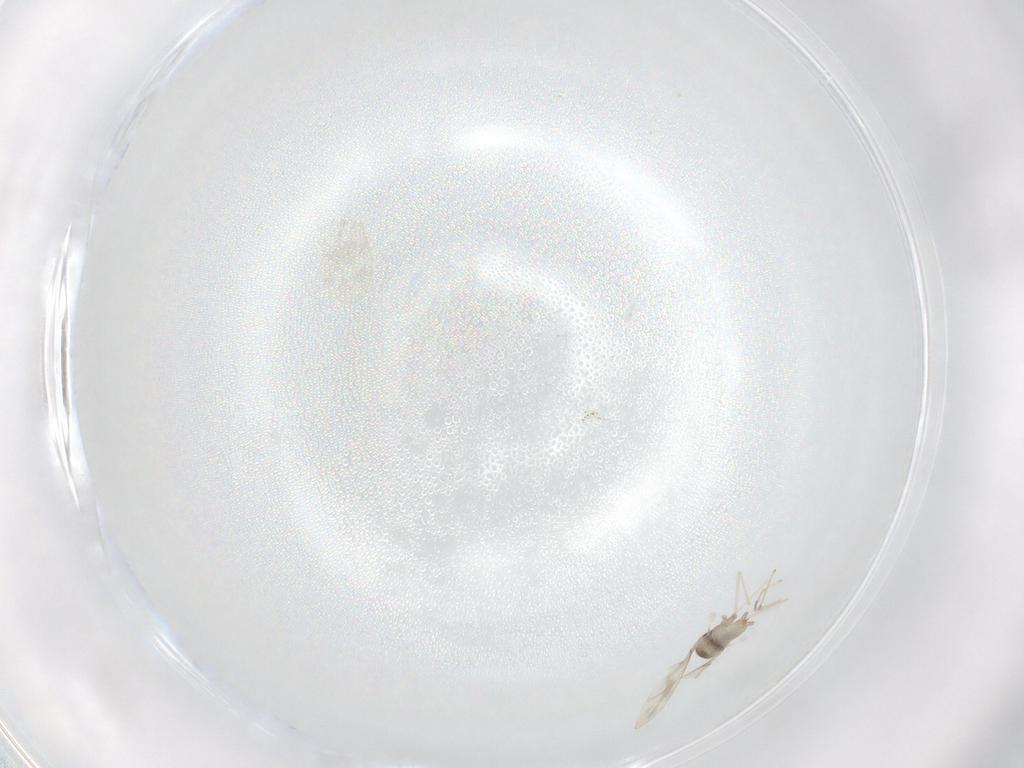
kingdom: Animalia
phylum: Arthropoda
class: Insecta
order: Diptera
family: Cecidomyiidae
